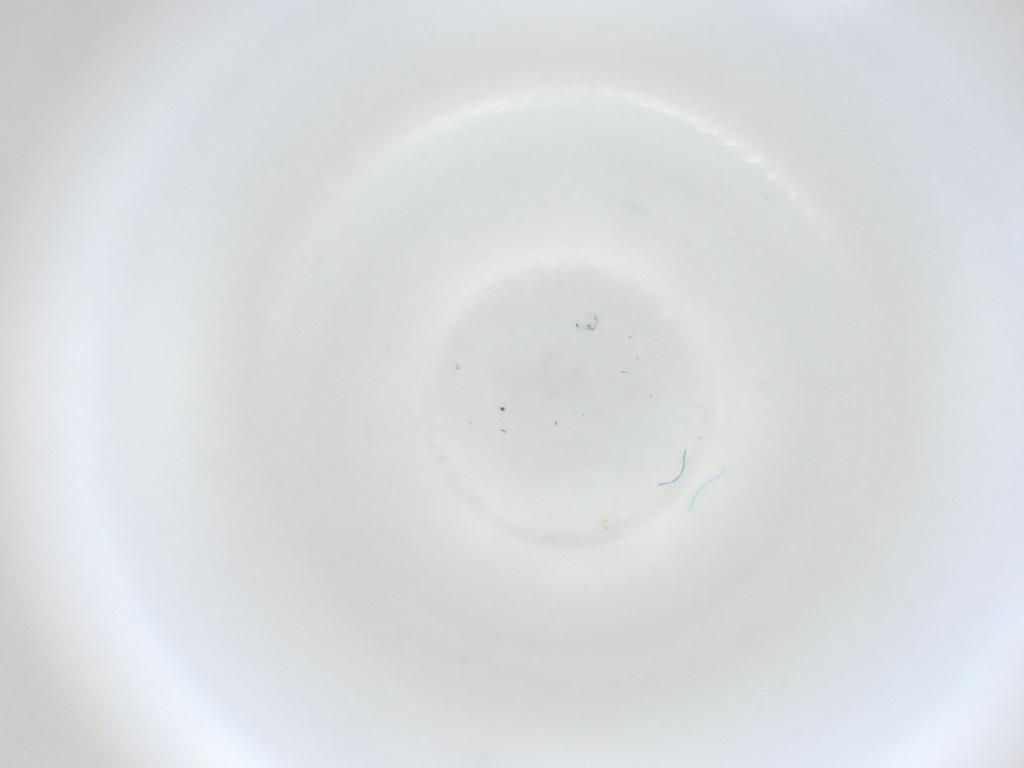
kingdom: Animalia
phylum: Arthropoda
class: Insecta
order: Diptera
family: Cecidomyiidae
